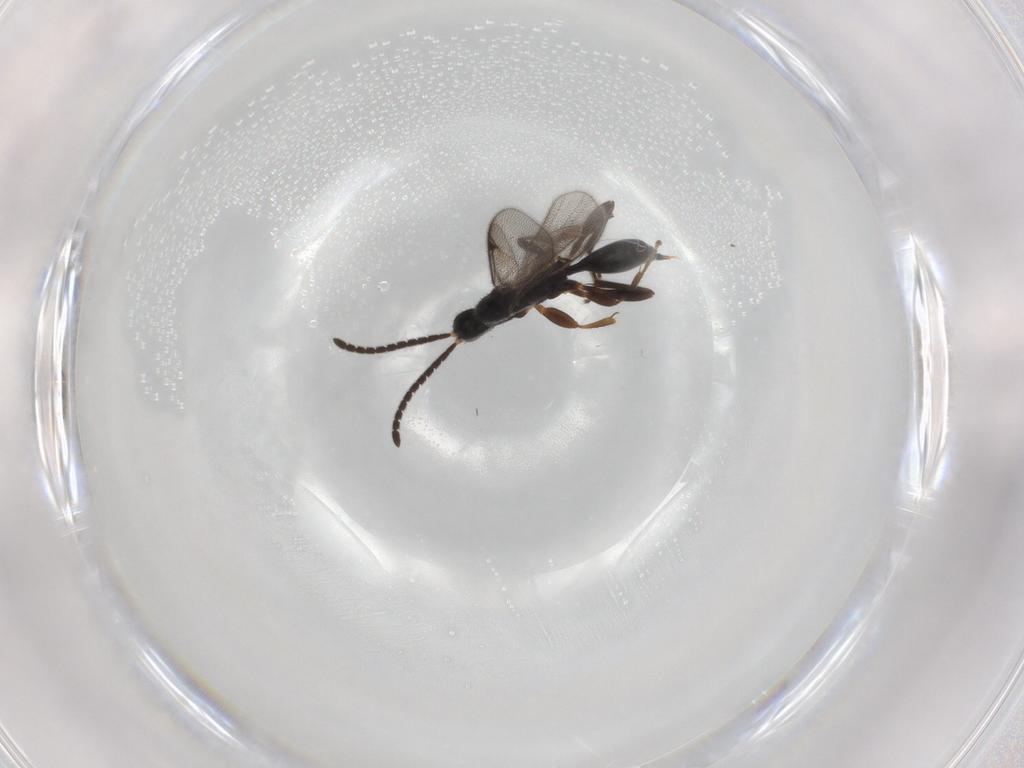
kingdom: Animalia
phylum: Arthropoda
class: Insecta
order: Hymenoptera
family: Proctotrupidae
